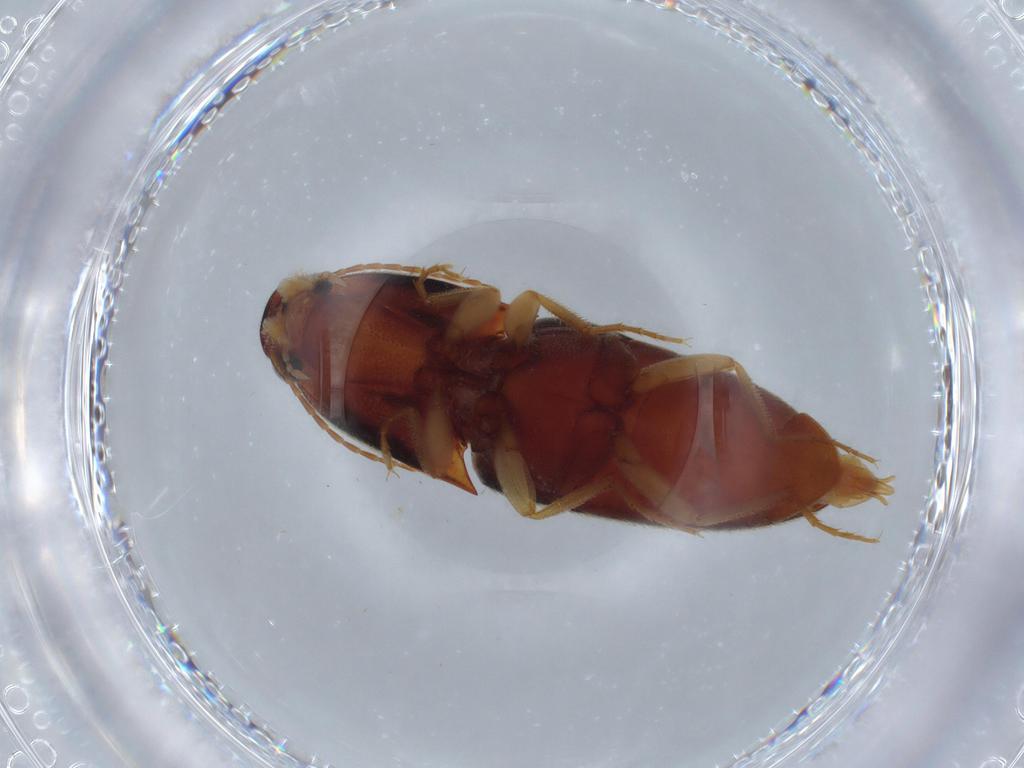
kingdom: Animalia
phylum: Arthropoda
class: Insecta
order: Coleoptera
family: Elateridae
